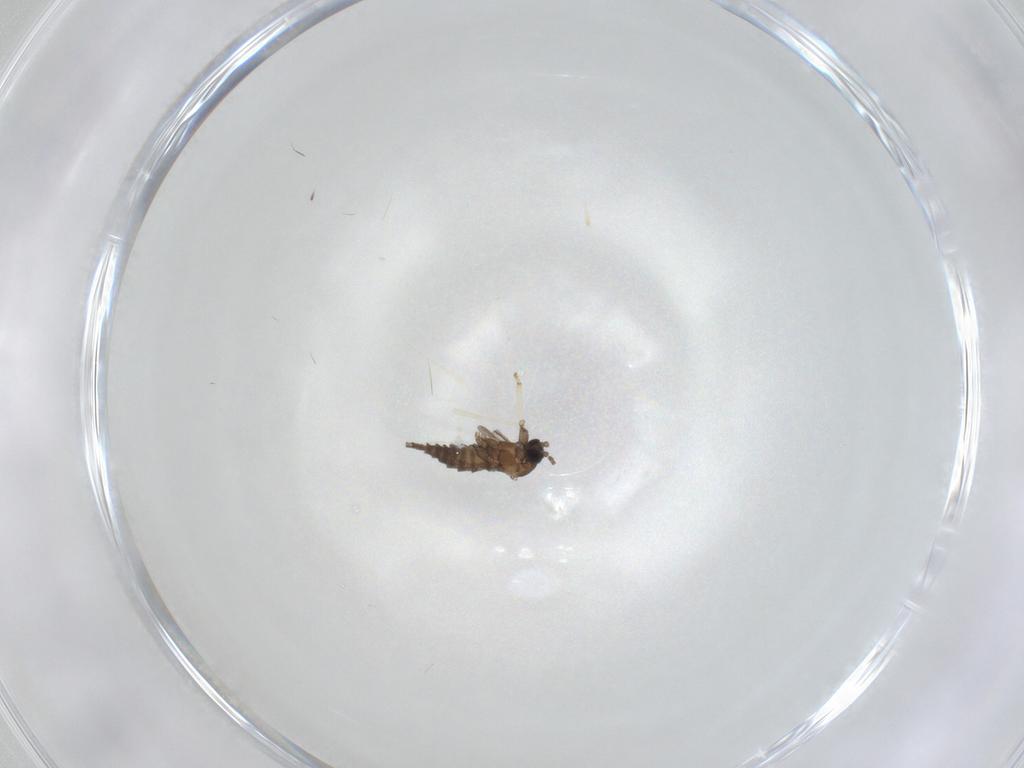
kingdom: Animalia
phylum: Arthropoda
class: Insecta
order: Diptera
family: Sciaridae
